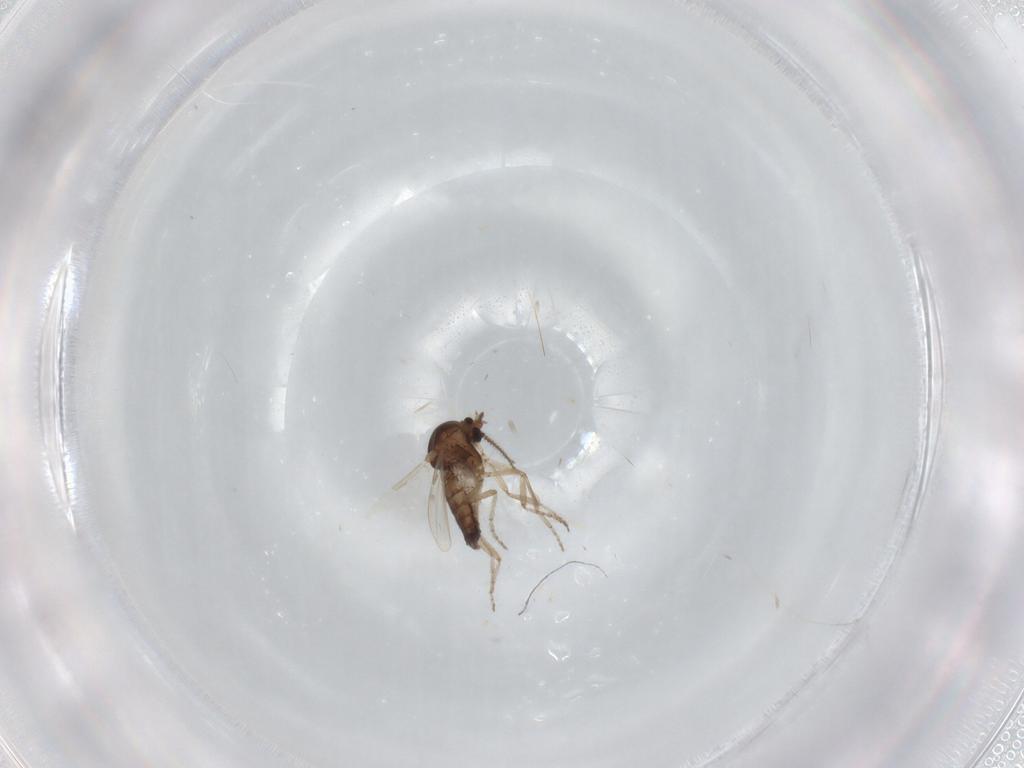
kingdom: Animalia
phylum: Arthropoda
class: Insecta
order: Diptera
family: Ceratopogonidae
